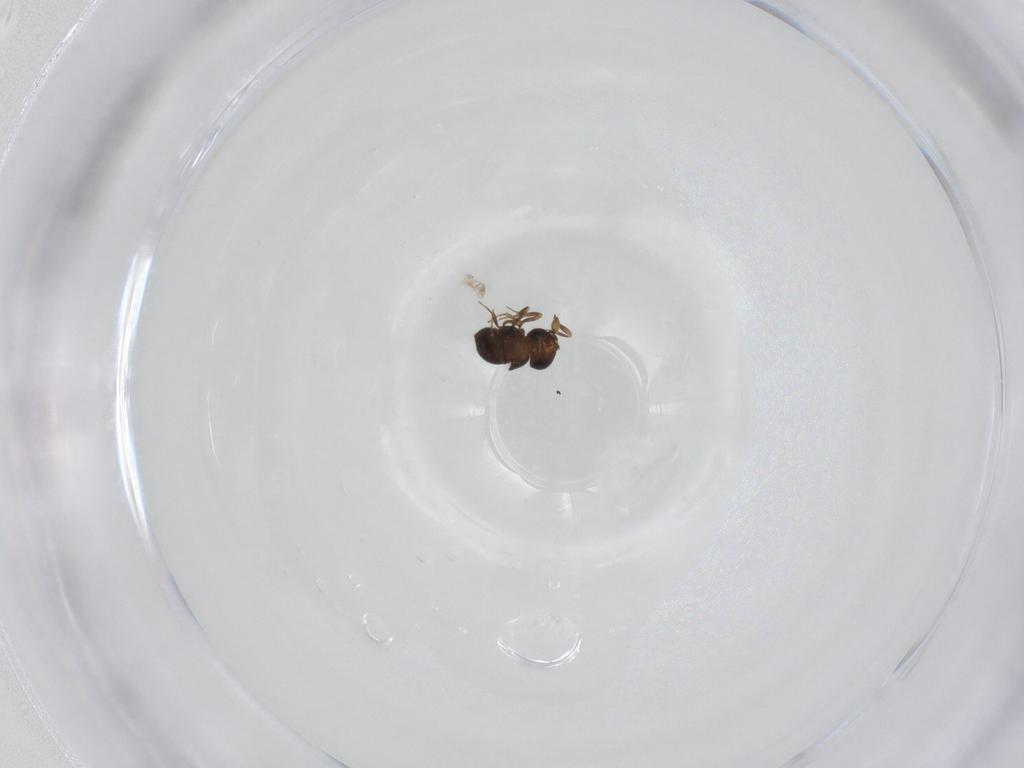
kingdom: Animalia
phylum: Arthropoda
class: Insecta
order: Hymenoptera
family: Scelionidae
